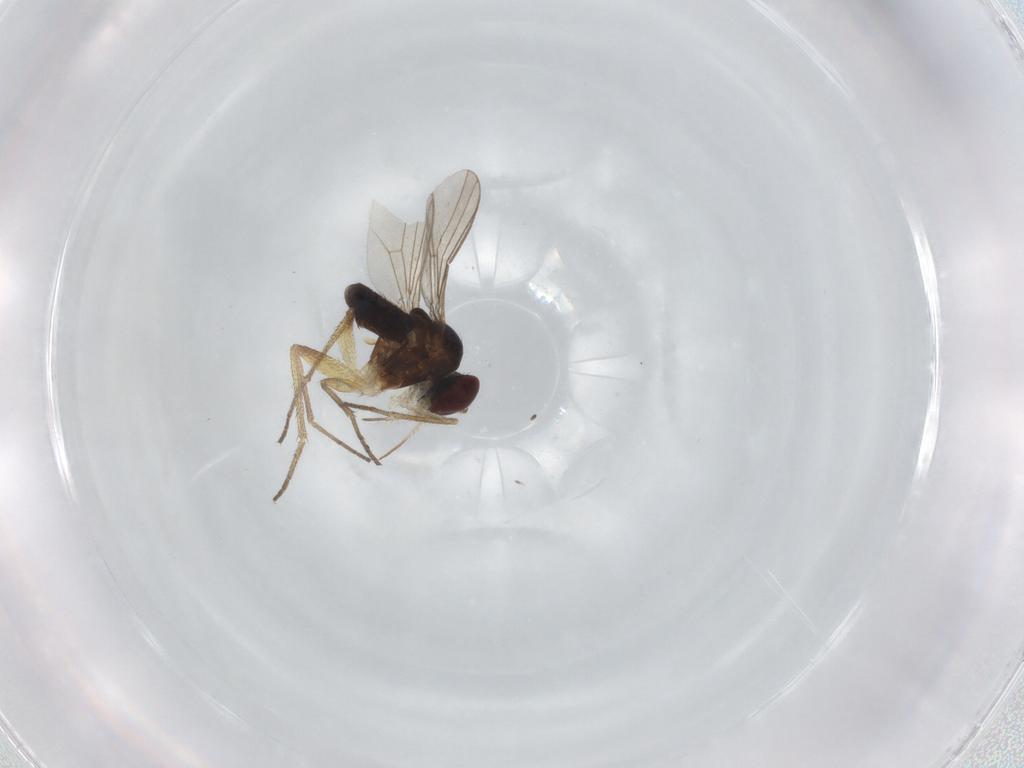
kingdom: Animalia
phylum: Arthropoda
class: Insecta
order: Diptera
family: Dolichopodidae
